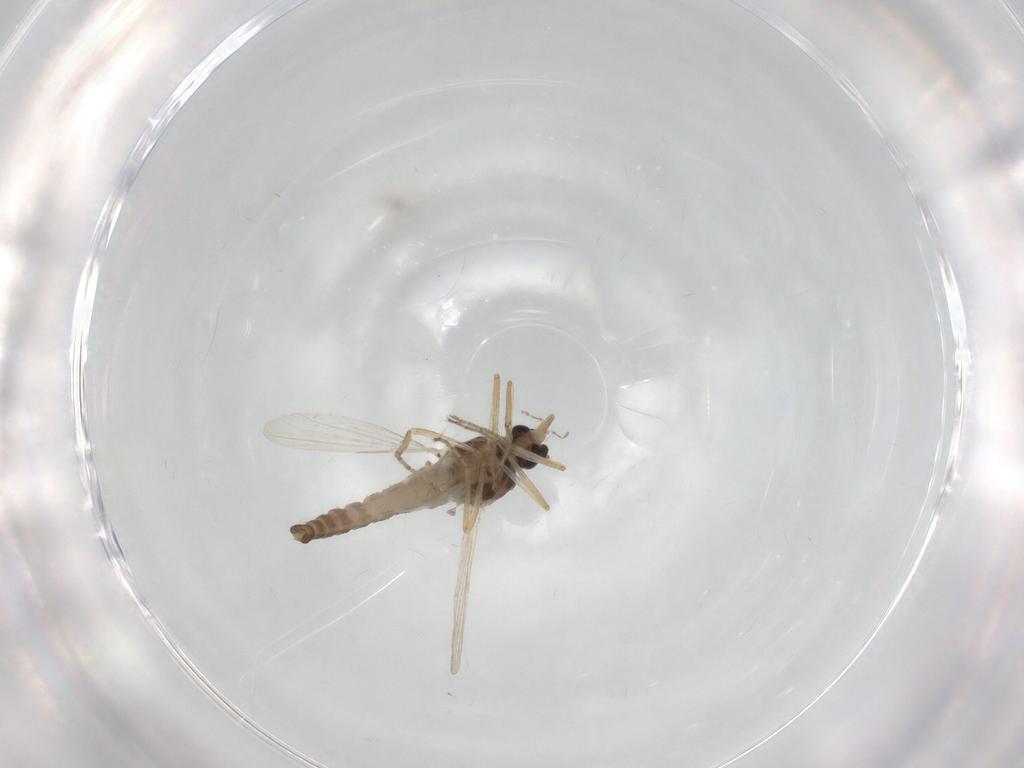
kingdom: Animalia
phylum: Arthropoda
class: Insecta
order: Diptera
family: Ceratopogonidae
